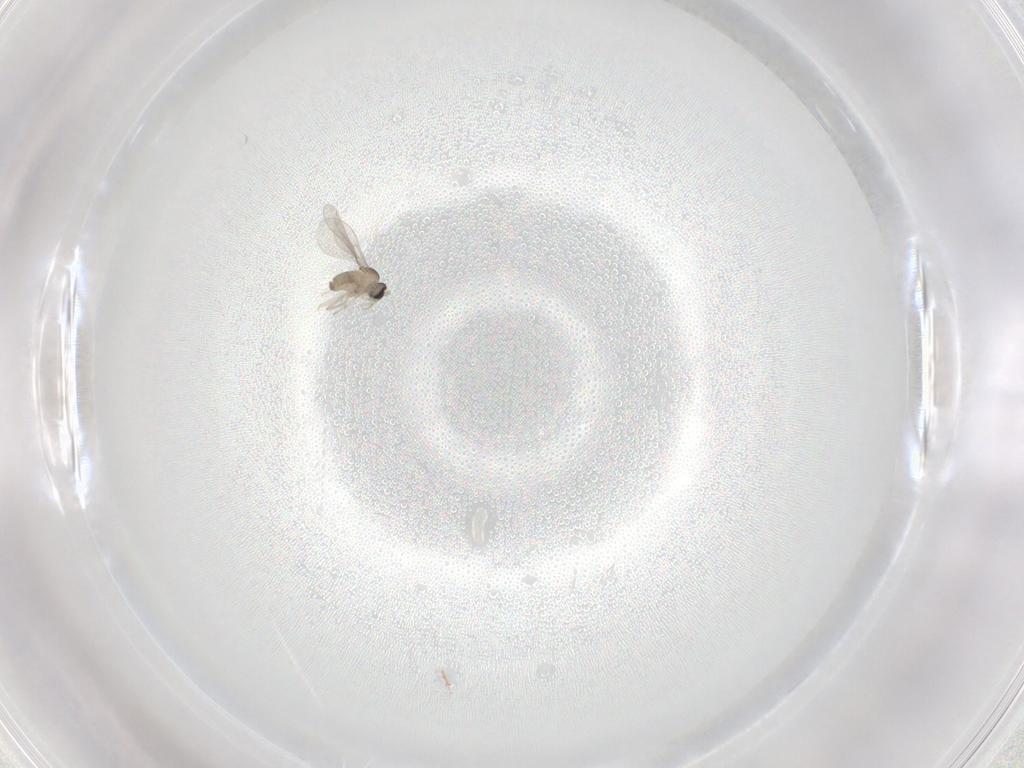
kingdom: Animalia
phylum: Arthropoda
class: Insecta
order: Diptera
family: Cecidomyiidae
